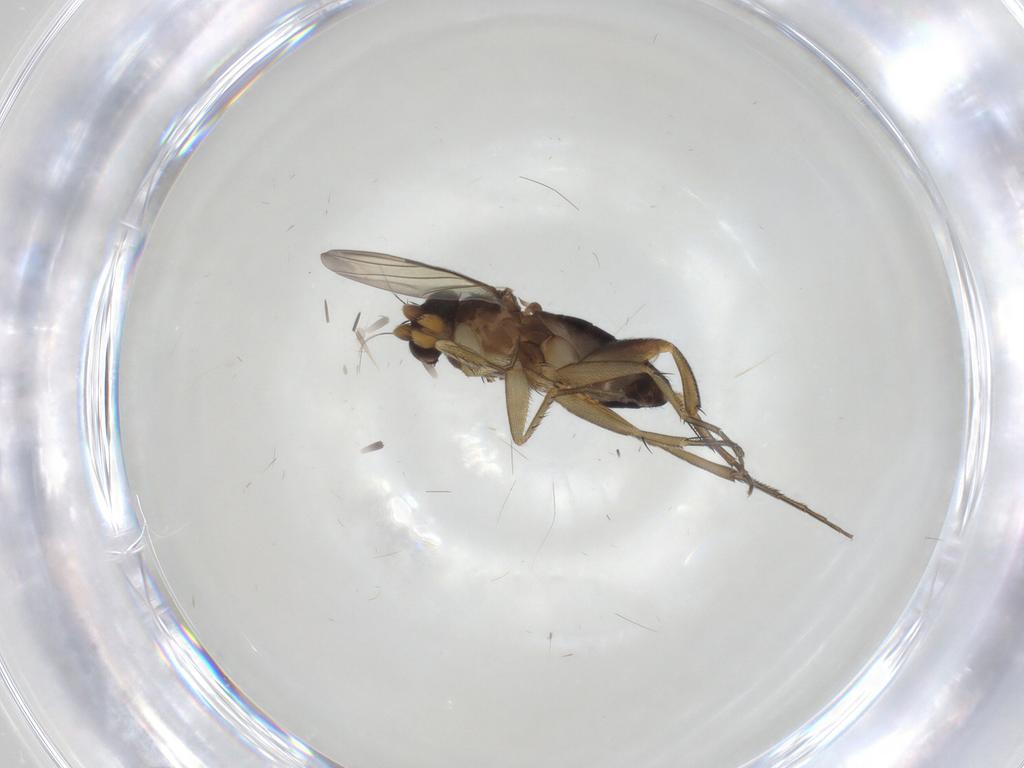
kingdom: Animalia
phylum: Arthropoda
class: Insecta
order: Diptera
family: Phoridae
